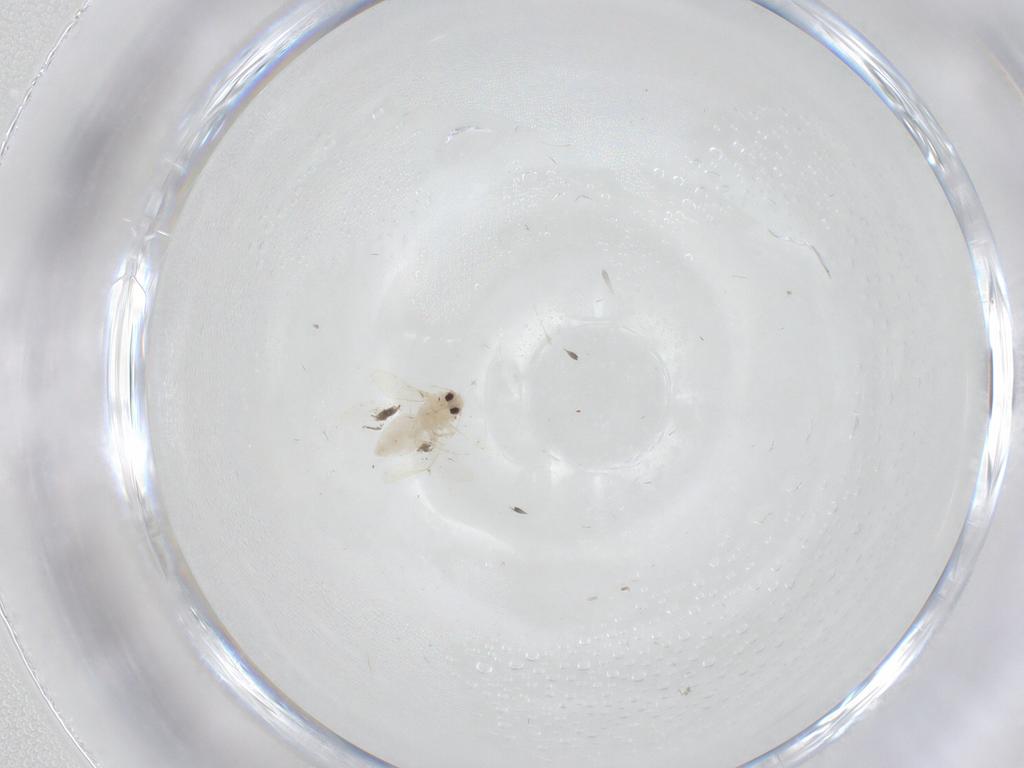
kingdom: Animalia
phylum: Arthropoda
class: Insecta
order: Hemiptera
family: Aleyrodidae
